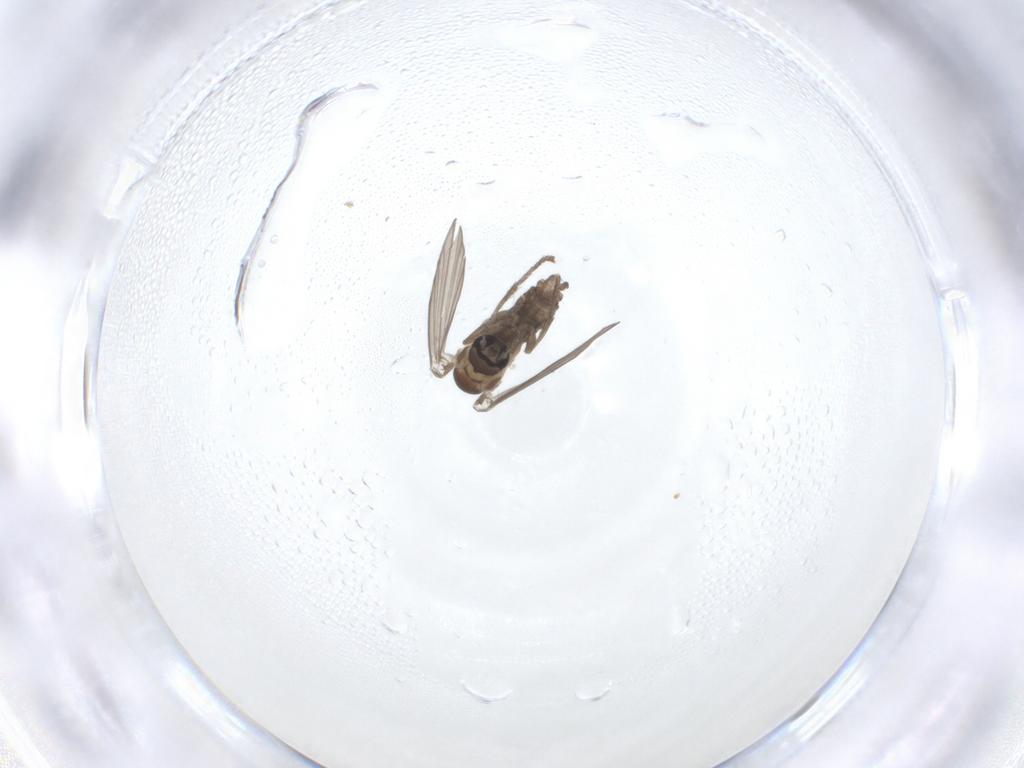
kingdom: Animalia
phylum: Arthropoda
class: Insecta
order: Diptera
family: Psychodidae
